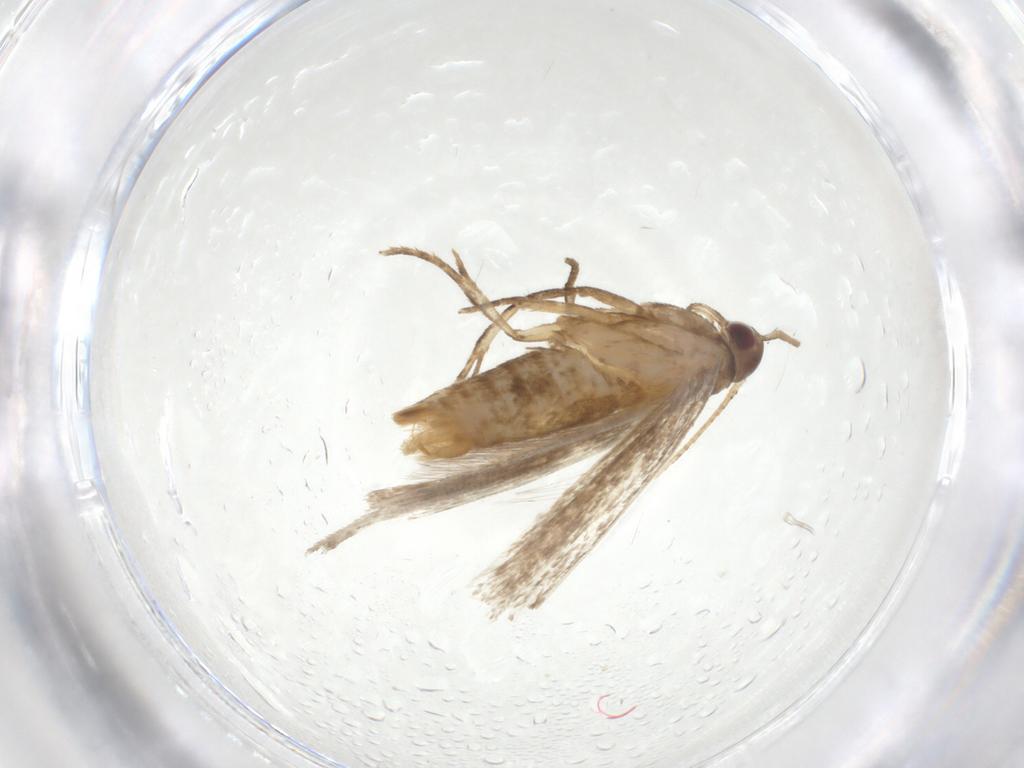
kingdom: Animalia
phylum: Arthropoda
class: Insecta
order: Lepidoptera
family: Gelechiidae
